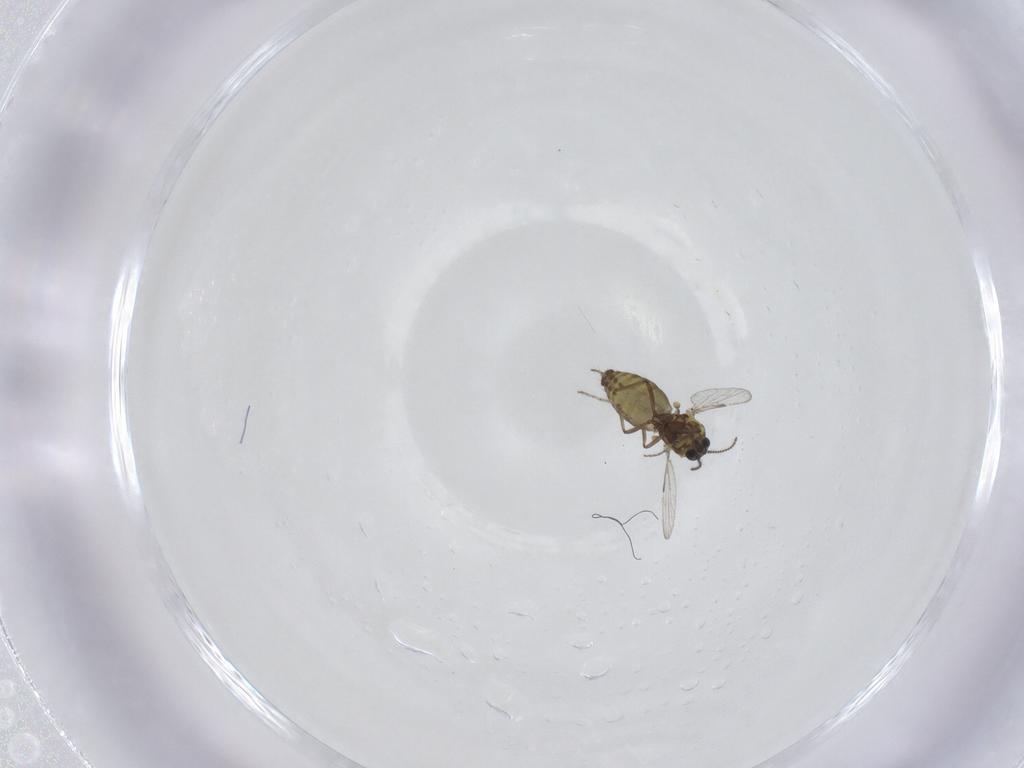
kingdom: Animalia
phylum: Arthropoda
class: Insecta
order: Diptera
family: Ceratopogonidae
